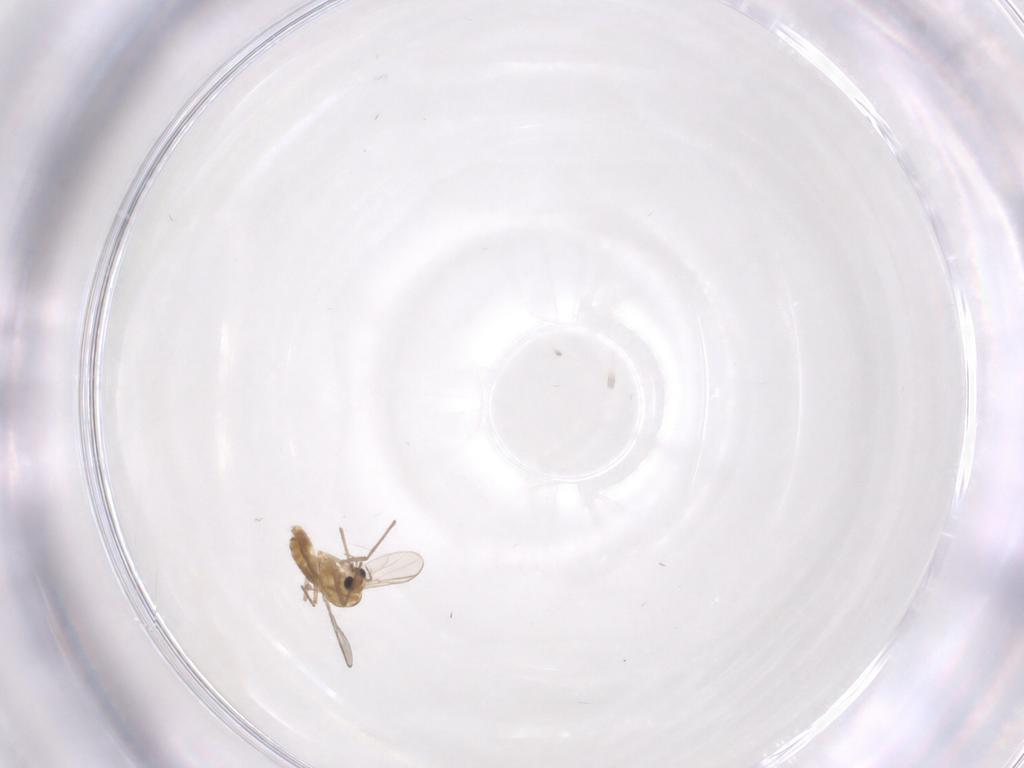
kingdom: Animalia
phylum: Arthropoda
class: Insecta
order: Diptera
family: Chironomidae
